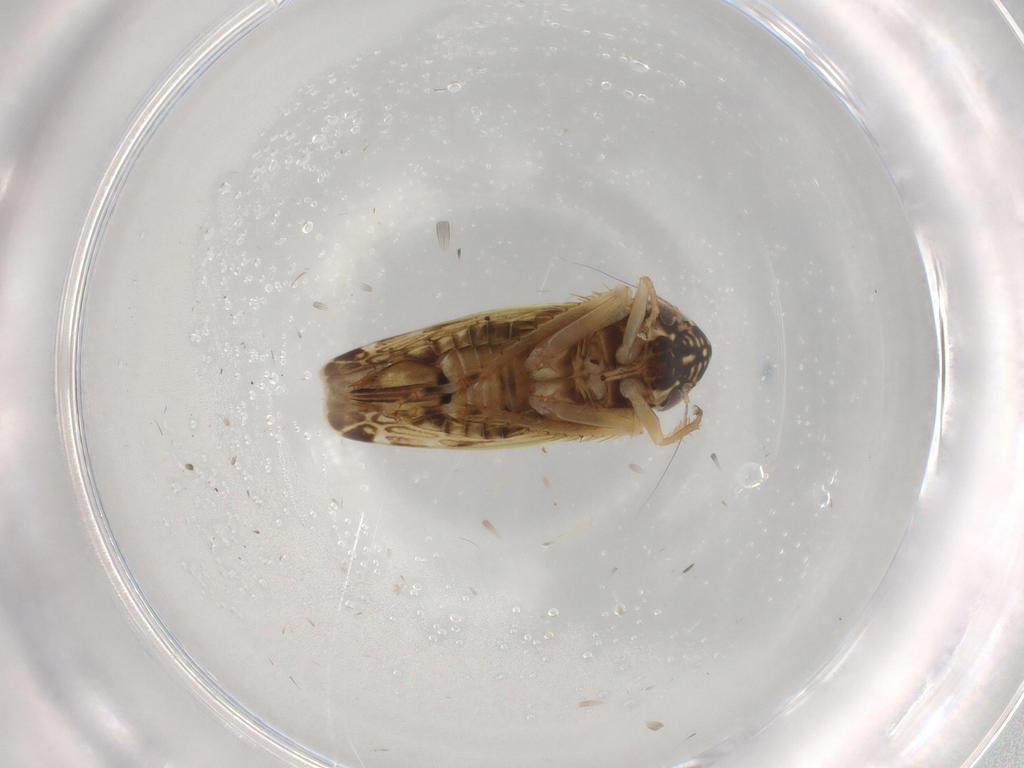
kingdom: Animalia
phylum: Arthropoda
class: Insecta
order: Hemiptera
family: Cicadellidae
